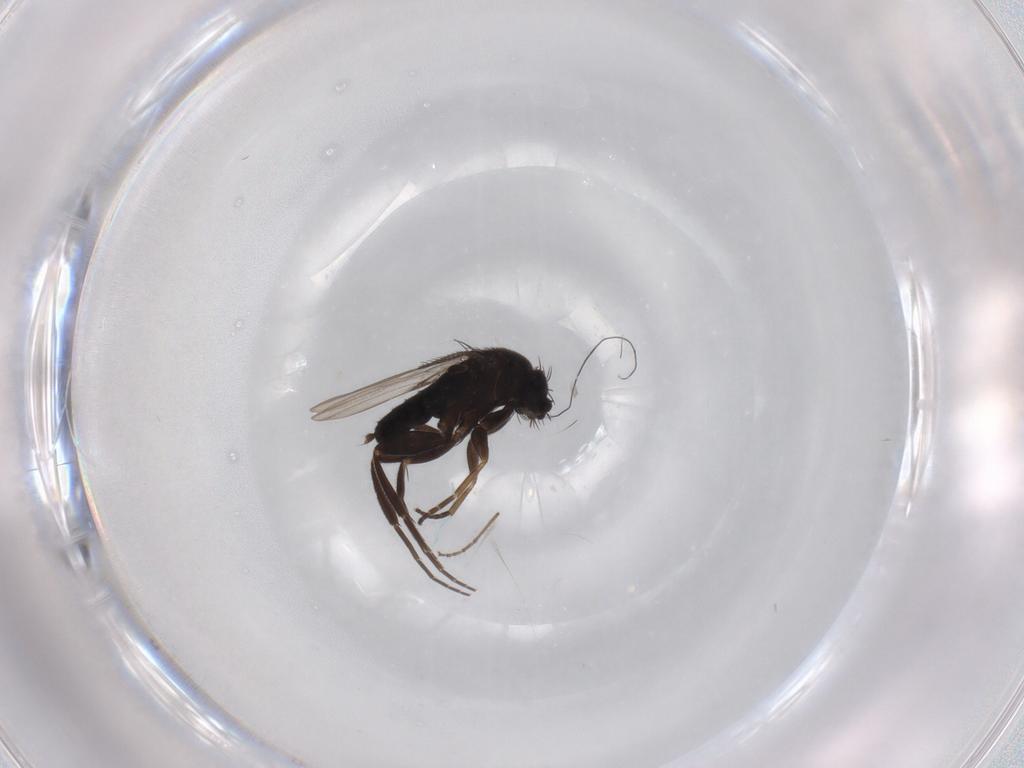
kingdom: Animalia
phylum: Arthropoda
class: Insecta
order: Diptera
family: Phoridae
